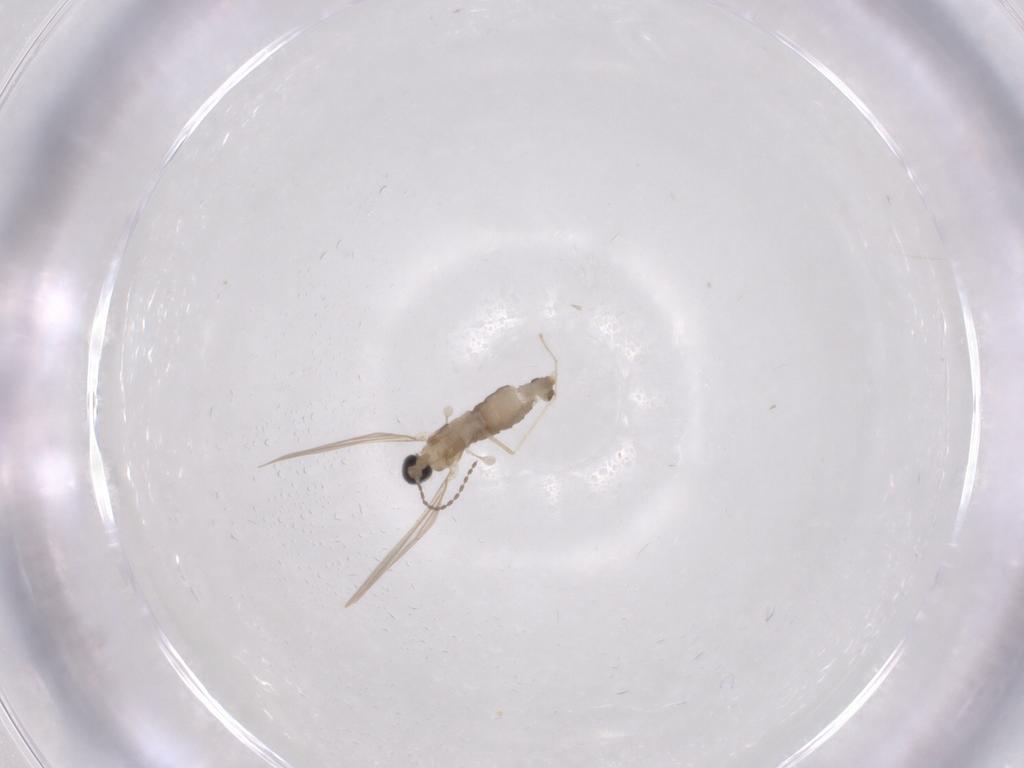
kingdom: Animalia
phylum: Arthropoda
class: Insecta
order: Diptera
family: Cecidomyiidae
